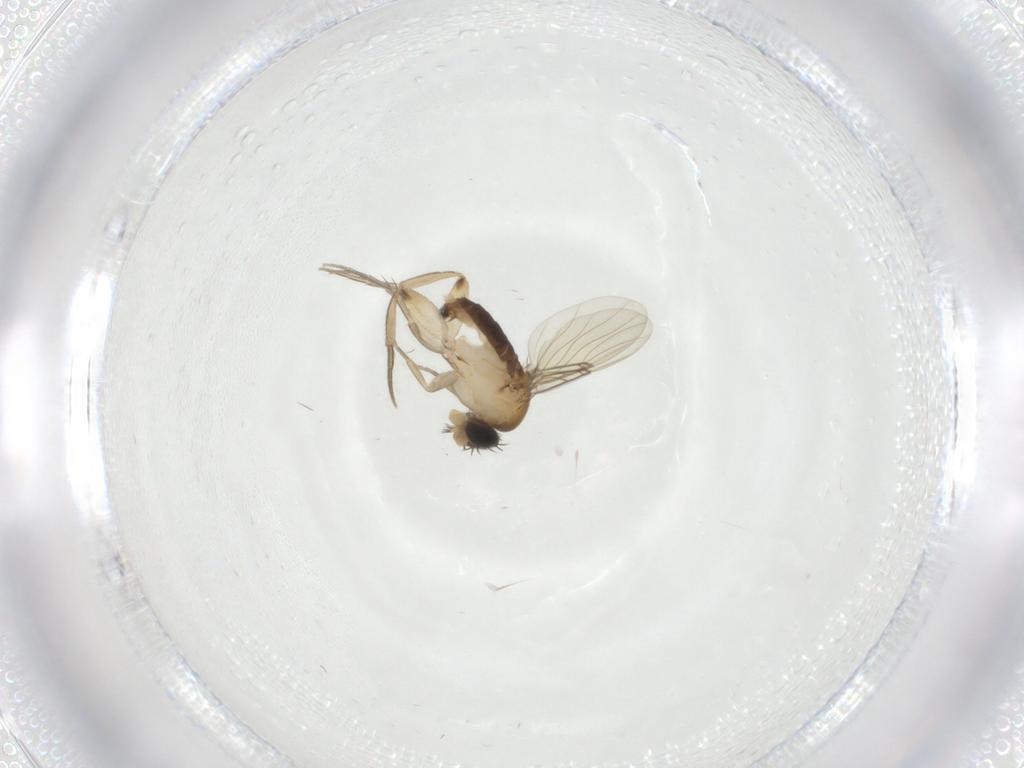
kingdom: Animalia
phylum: Arthropoda
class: Insecta
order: Diptera
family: Phoridae
